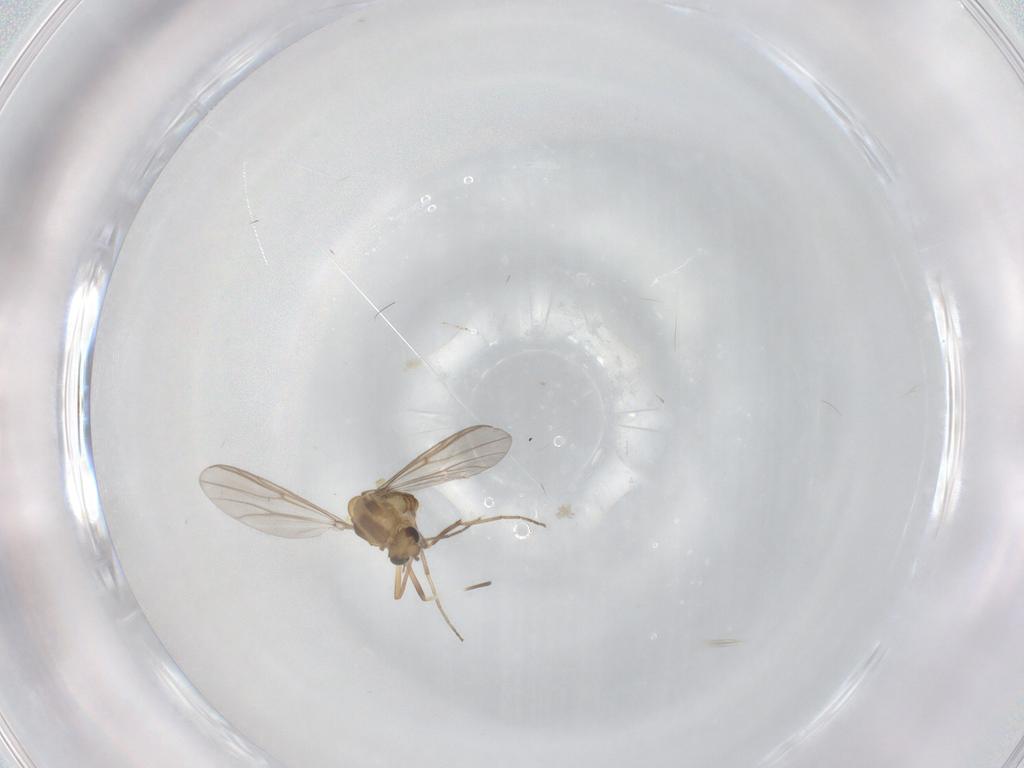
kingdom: Animalia
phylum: Arthropoda
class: Insecta
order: Diptera
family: Chironomidae
